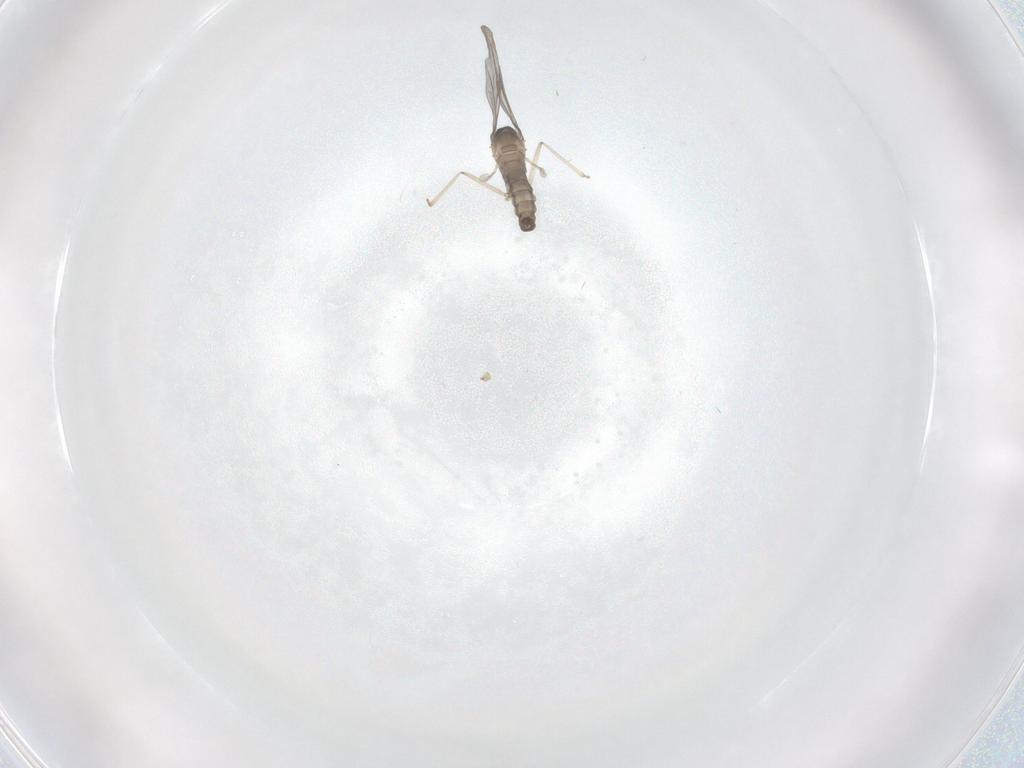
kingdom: Animalia
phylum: Arthropoda
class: Insecta
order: Diptera
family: Cecidomyiidae
